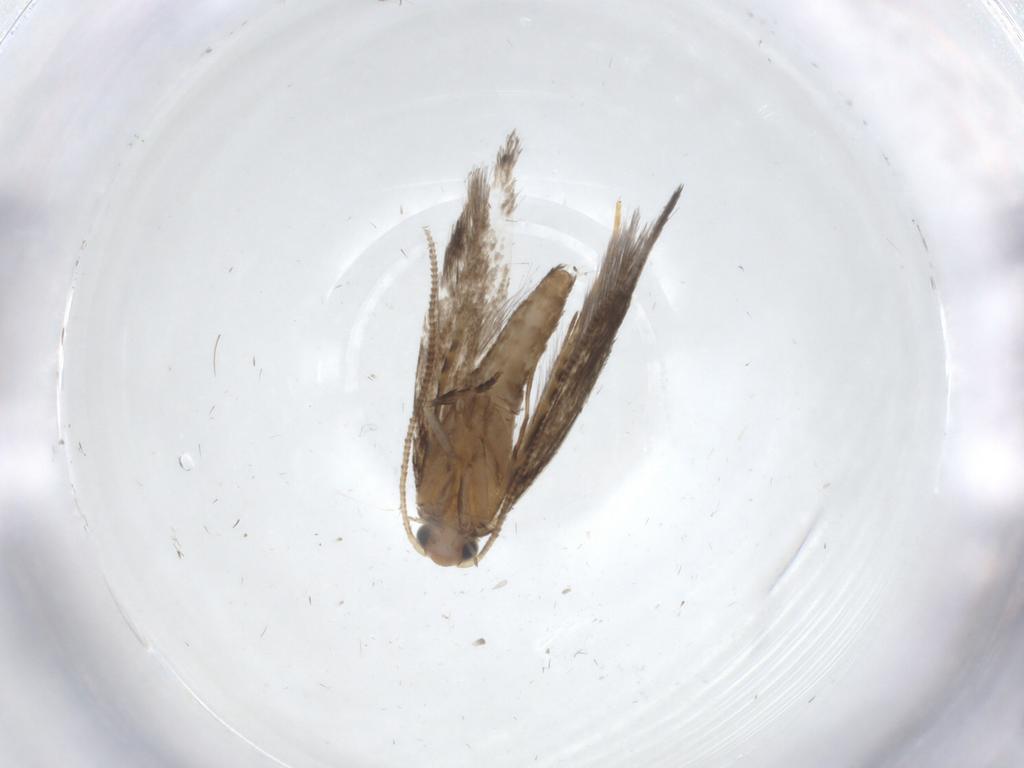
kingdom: Animalia
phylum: Arthropoda
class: Insecta
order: Lepidoptera
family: Tineidae
